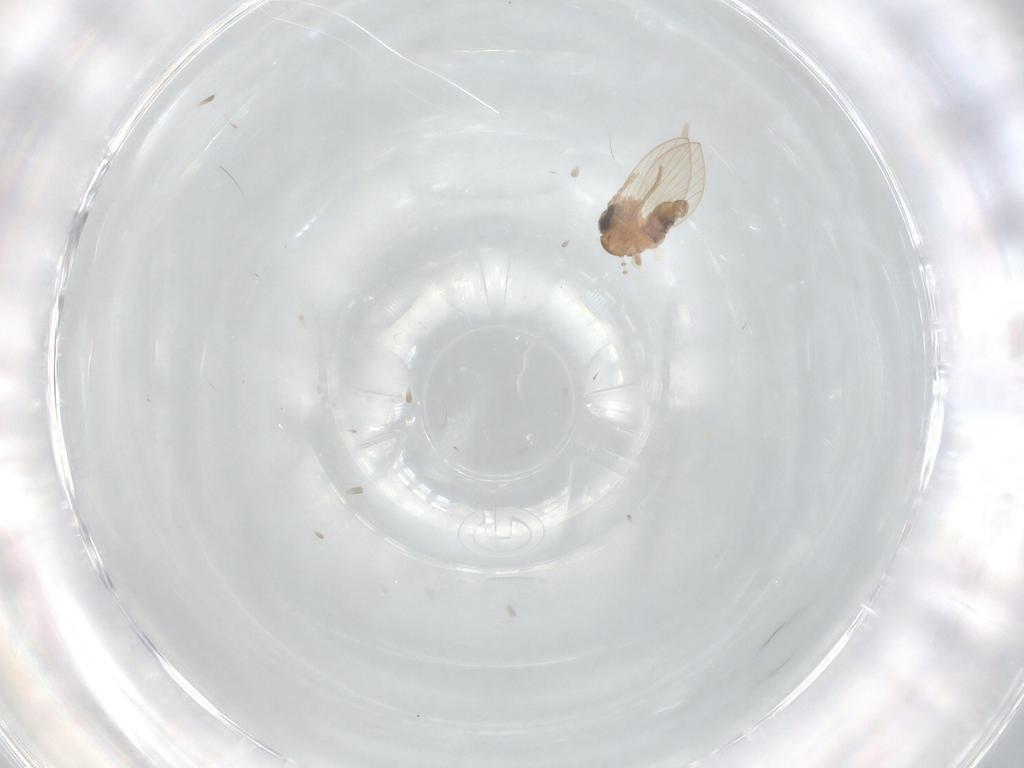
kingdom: Animalia
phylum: Arthropoda
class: Insecta
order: Diptera
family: Psychodidae
